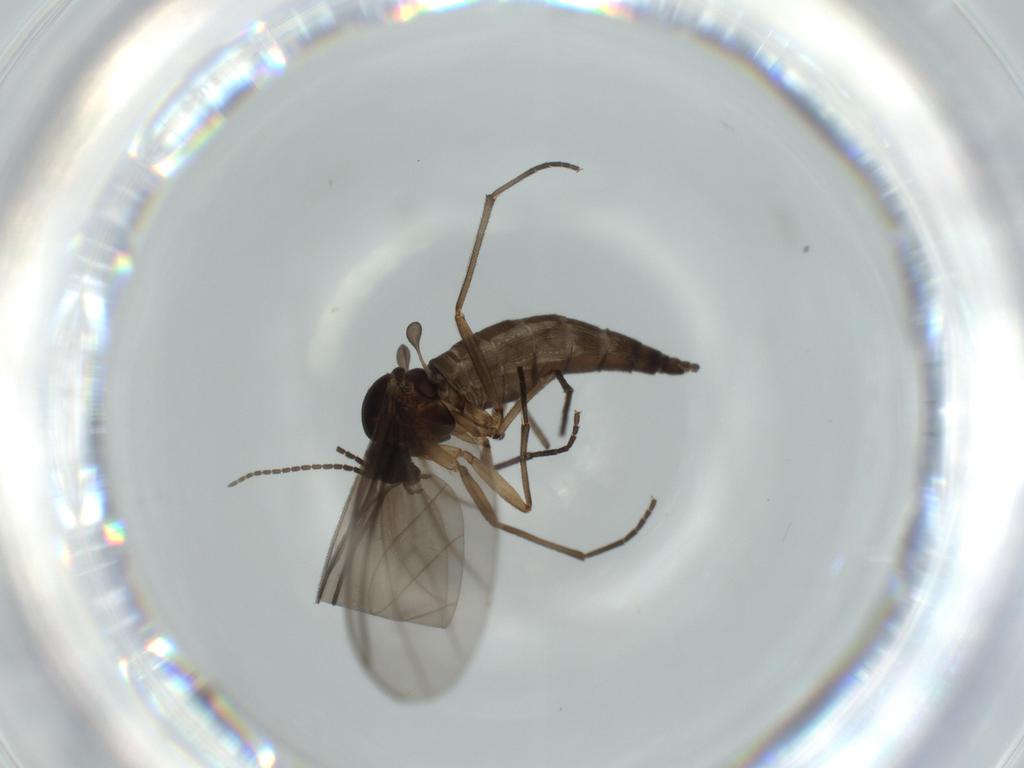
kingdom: Animalia
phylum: Arthropoda
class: Insecta
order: Diptera
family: Sciaridae
